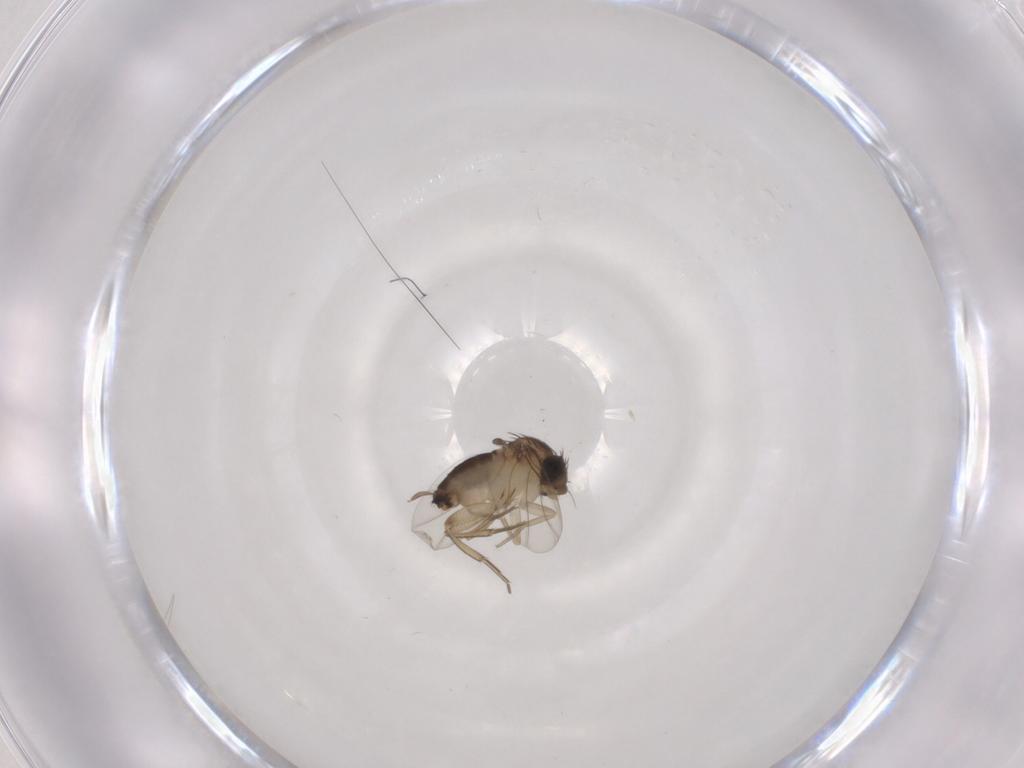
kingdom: Animalia
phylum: Arthropoda
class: Insecta
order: Diptera
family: Phoridae
